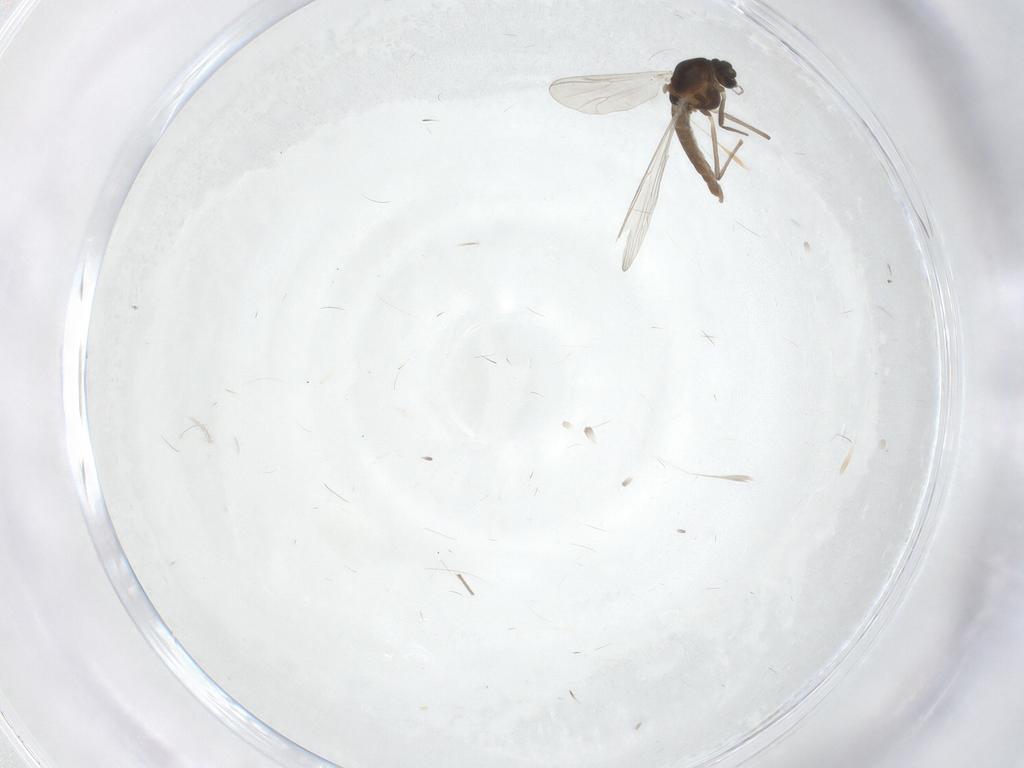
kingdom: Animalia
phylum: Arthropoda
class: Insecta
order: Diptera
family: Chironomidae
